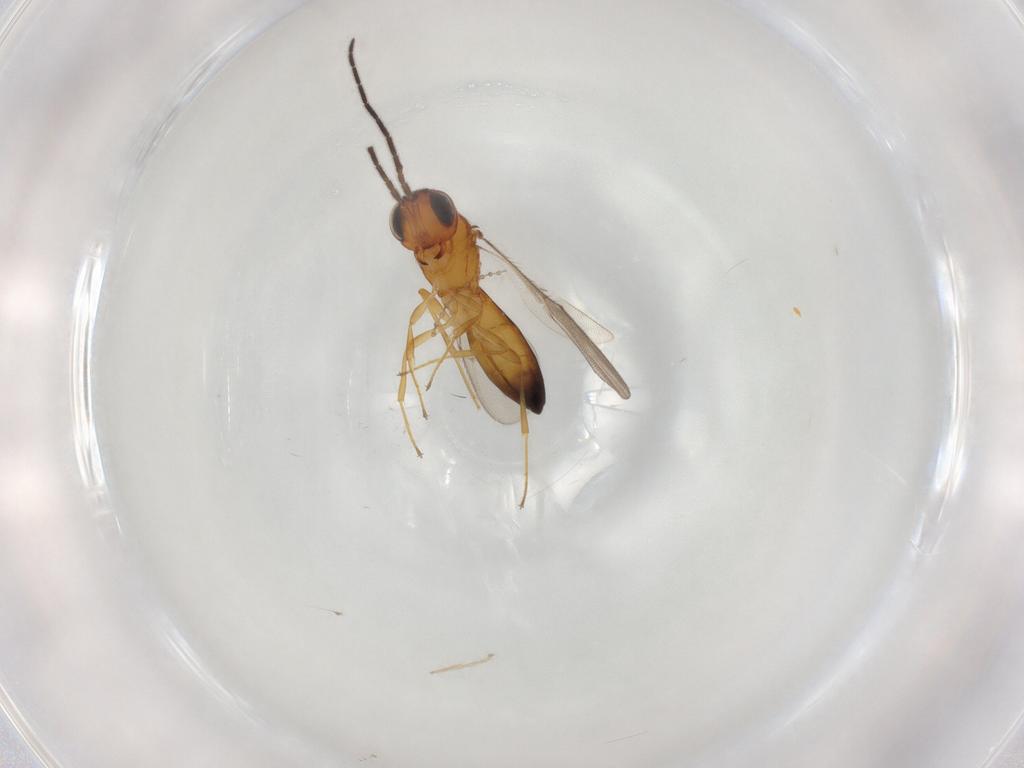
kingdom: Animalia
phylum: Arthropoda
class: Insecta
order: Hymenoptera
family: Scelionidae
